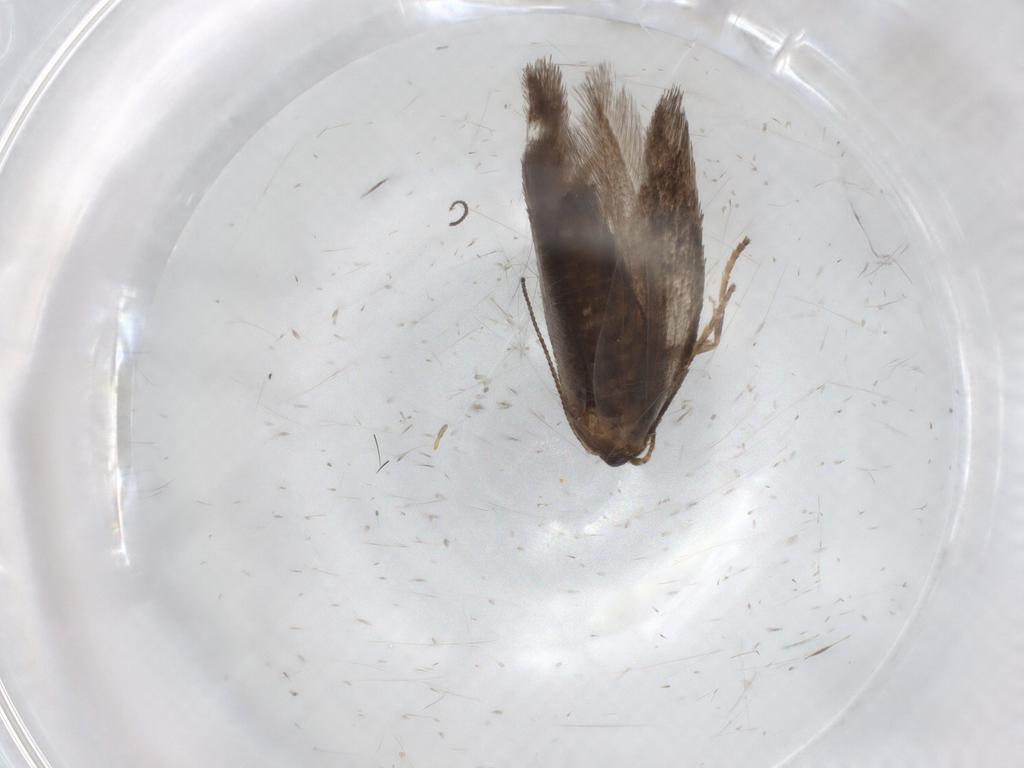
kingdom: Animalia
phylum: Arthropoda
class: Insecta
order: Lepidoptera
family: Nepticulidae
